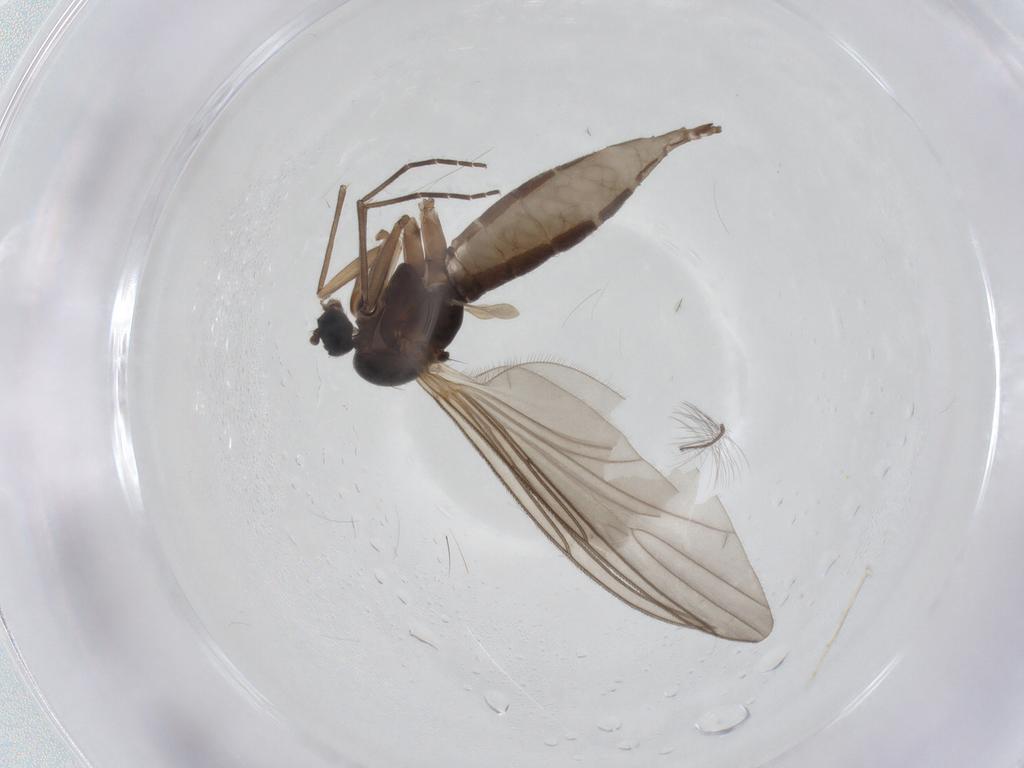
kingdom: Animalia
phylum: Arthropoda
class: Insecta
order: Diptera
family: Sciaridae
